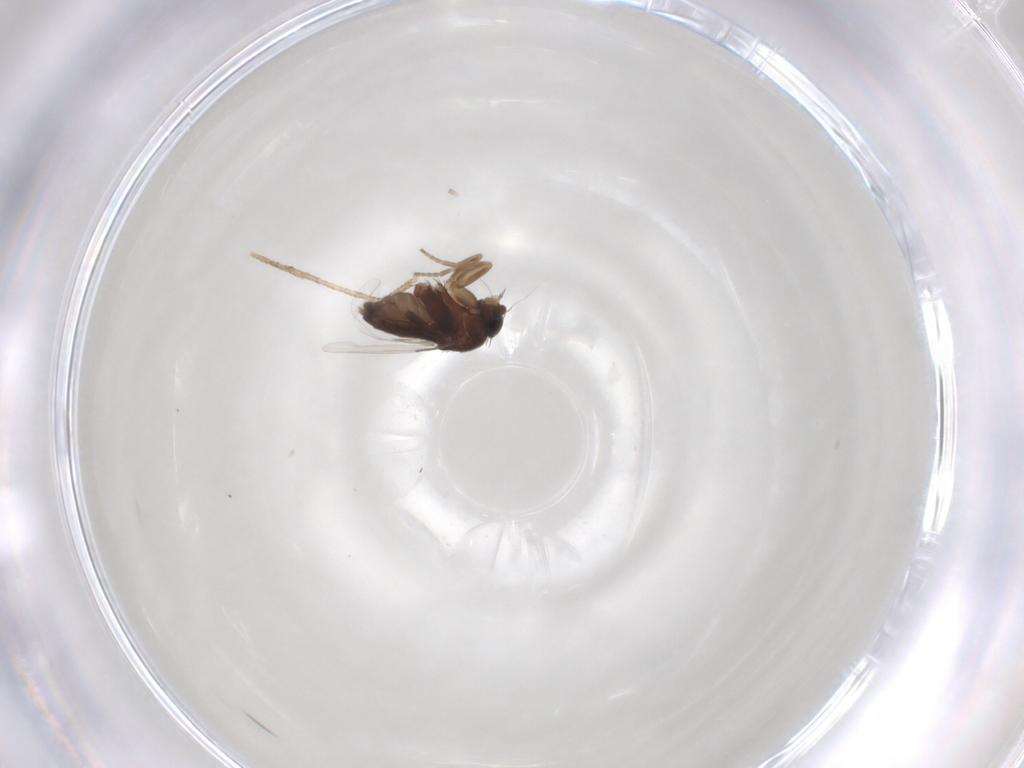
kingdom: Animalia
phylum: Arthropoda
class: Insecta
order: Diptera
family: Phoridae
